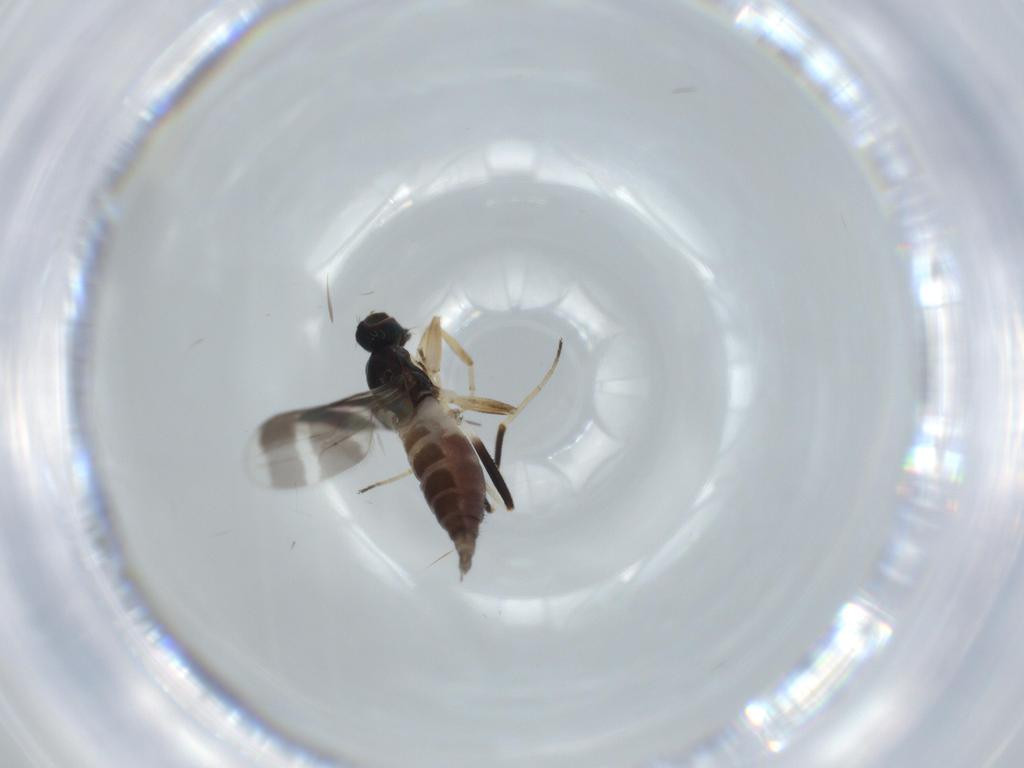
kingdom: Animalia
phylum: Arthropoda
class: Insecta
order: Diptera
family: Hybotidae
